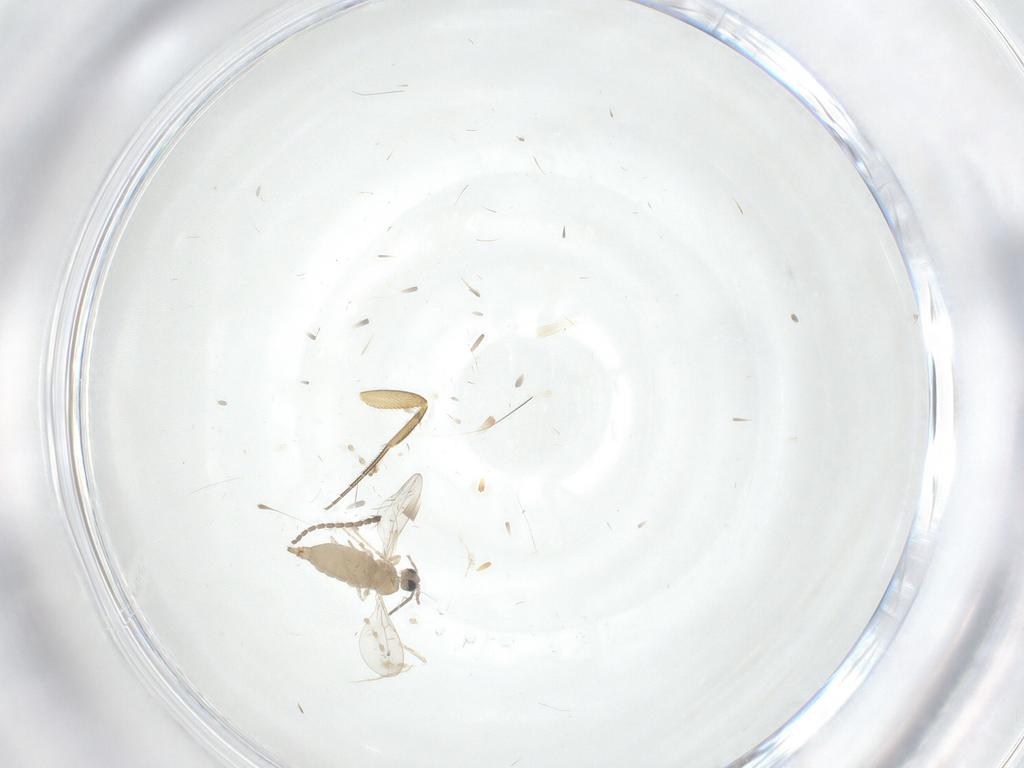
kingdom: Animalia
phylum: Arthropoda
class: Insecta
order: Diptera
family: Cecidomyiidae
